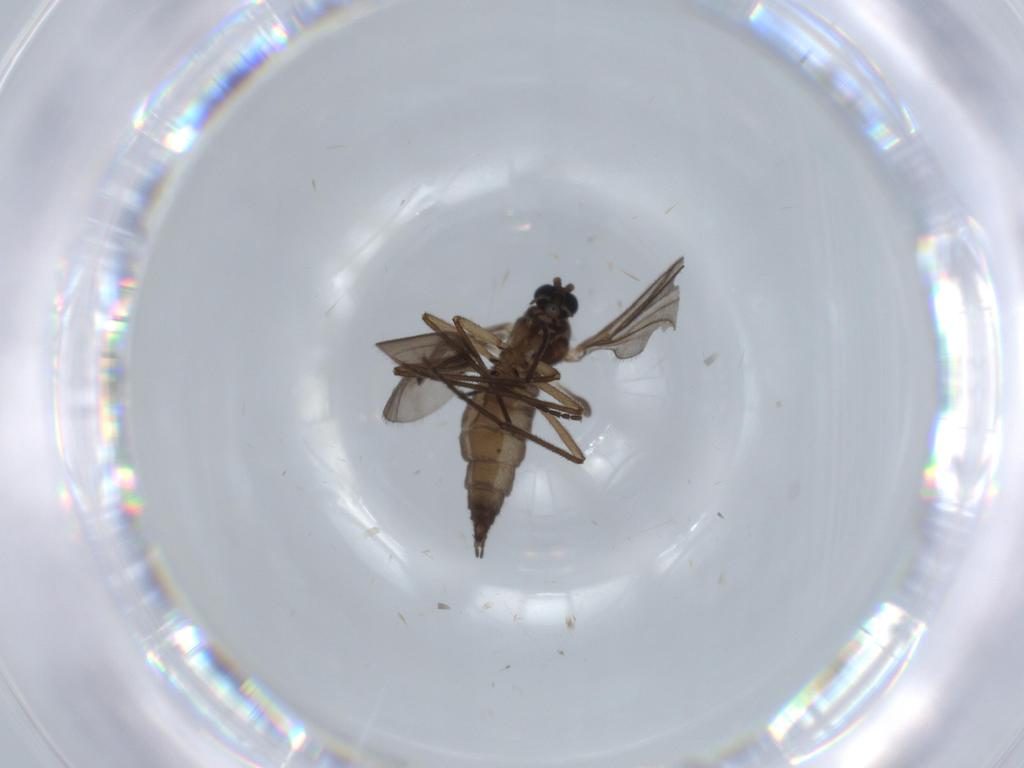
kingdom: Animalia
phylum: Arthropoda
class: Insecta
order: Diptera
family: Sciaridae
